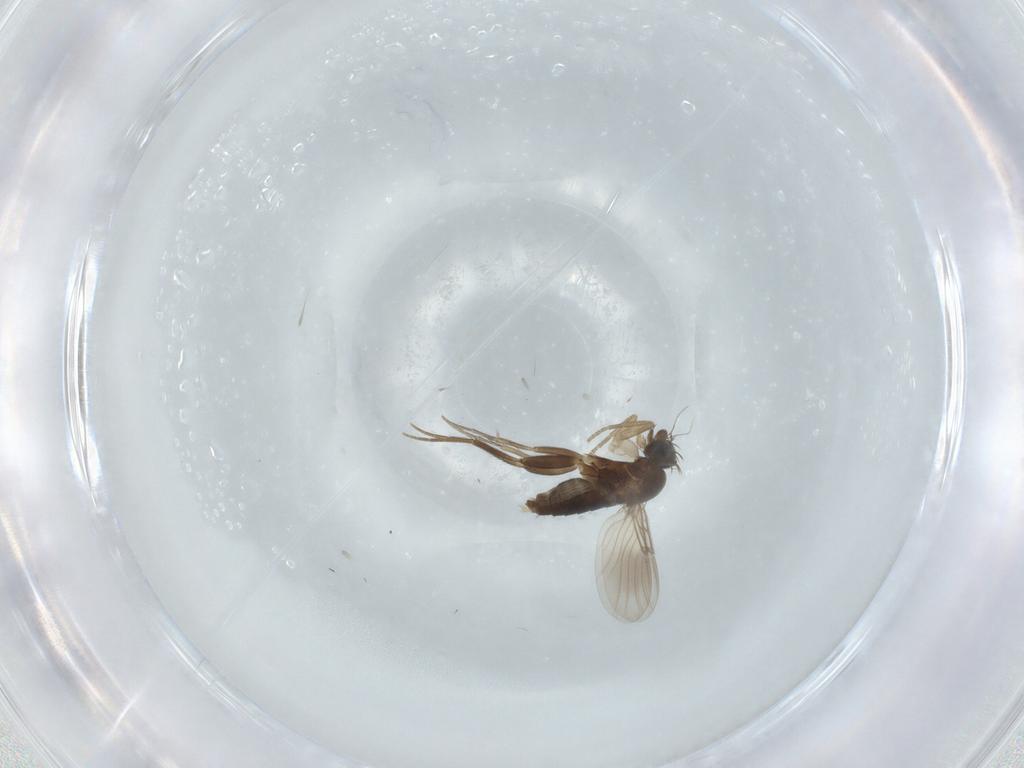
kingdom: Animalia
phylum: Arthropoda
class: Insecta
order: Diptera
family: Phoridae
